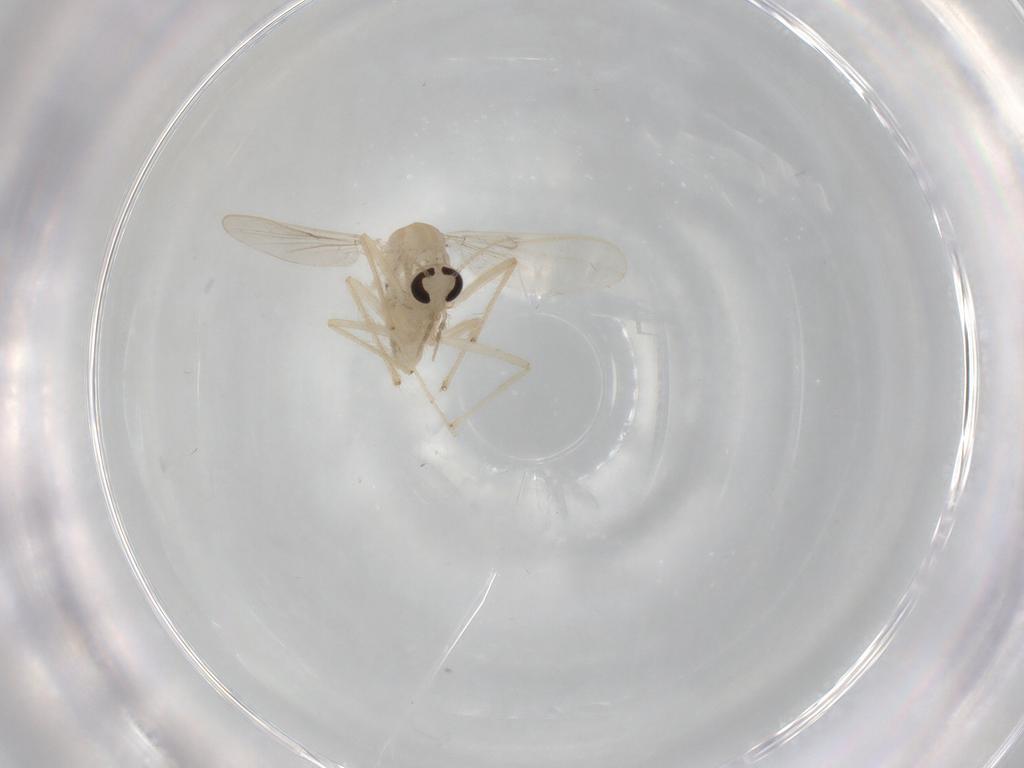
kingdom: Animalia
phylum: Arthropoda
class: Insecta
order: Diptera
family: Chironomidae
